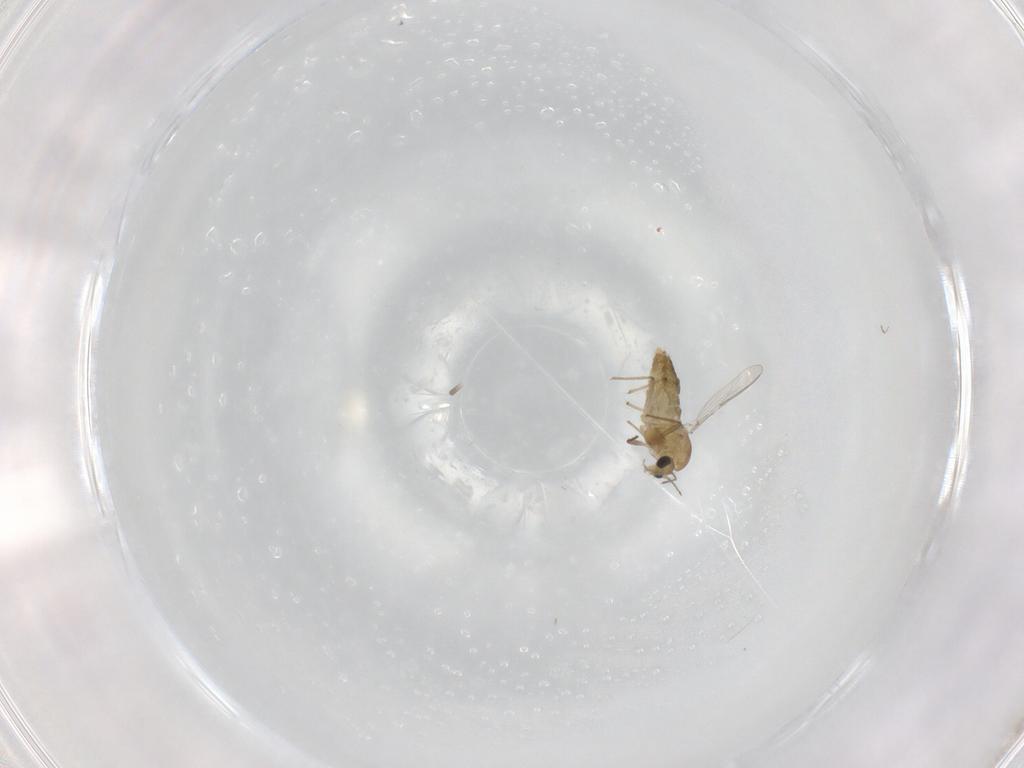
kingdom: Animalia
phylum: Arthropoda
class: Insecta
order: Diptera
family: Chironomidae
